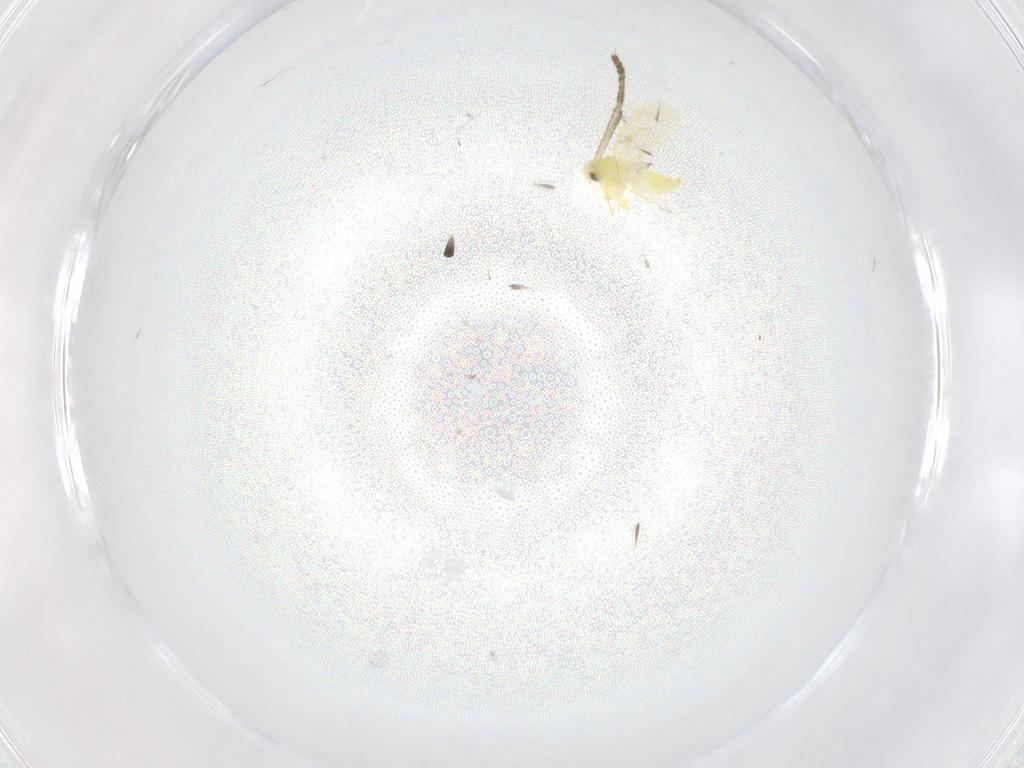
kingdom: Animalia
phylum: Arthropoda
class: Insecta
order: Hemiptera
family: Aleyrodidae
